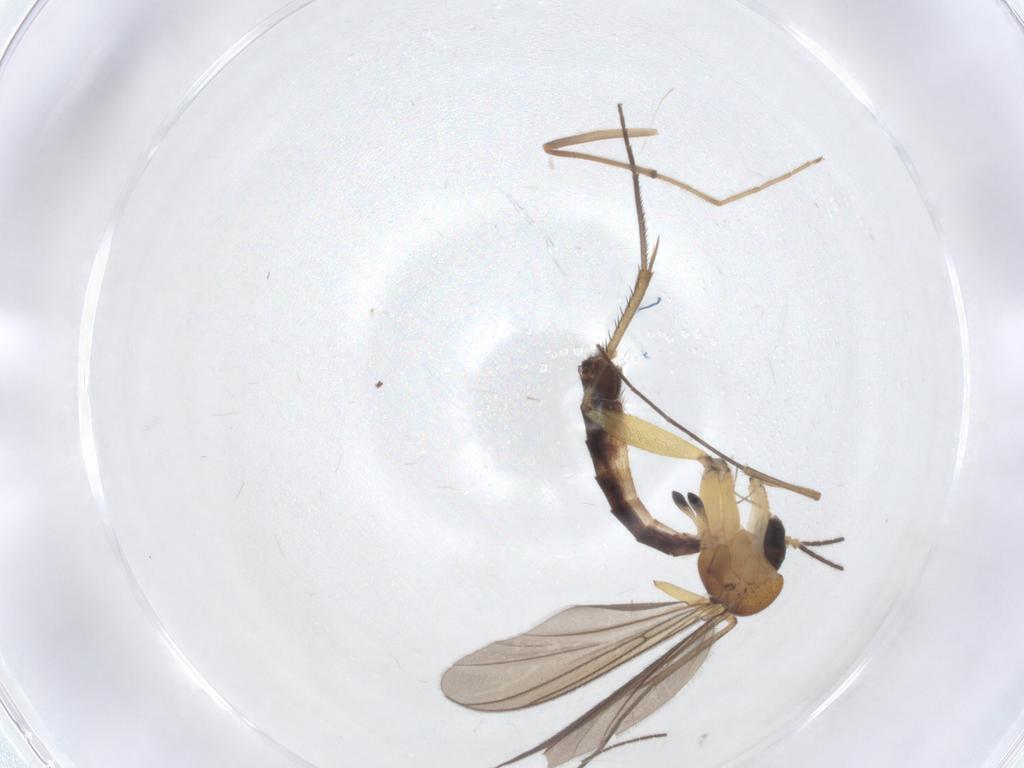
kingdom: Animalia
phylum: Arthropoda
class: Insecta
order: Diptera
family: Chironomidae
